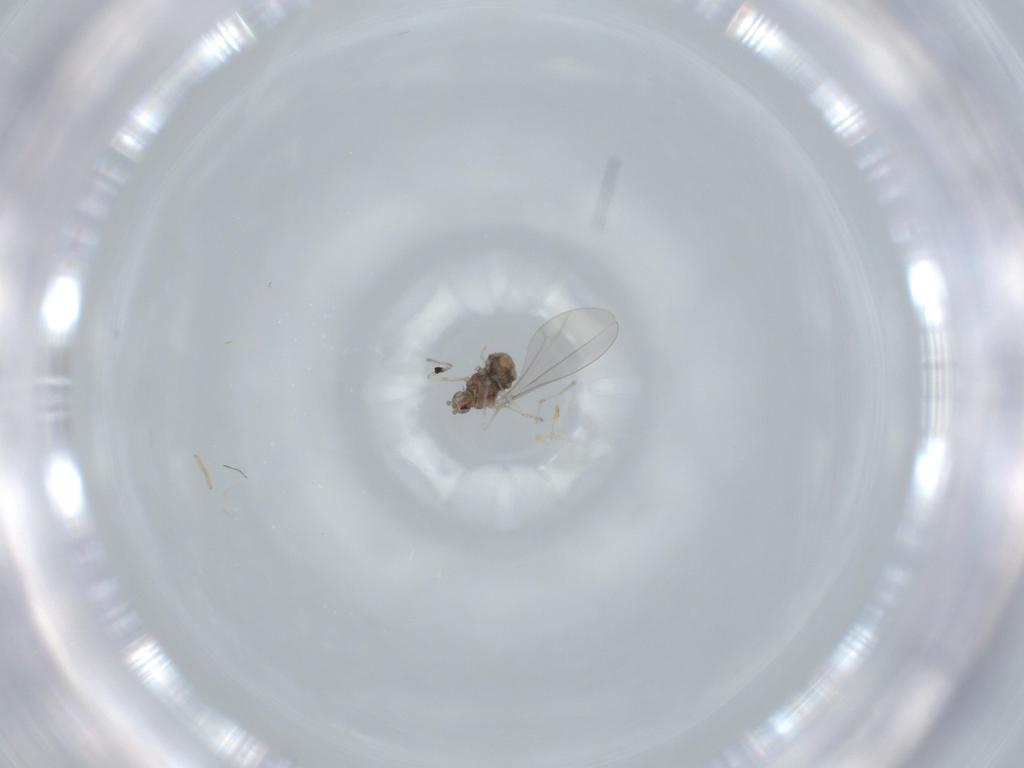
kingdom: Animalia
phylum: Arthropoda
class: Insecta
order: Diptera
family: Cecidomyiidae
